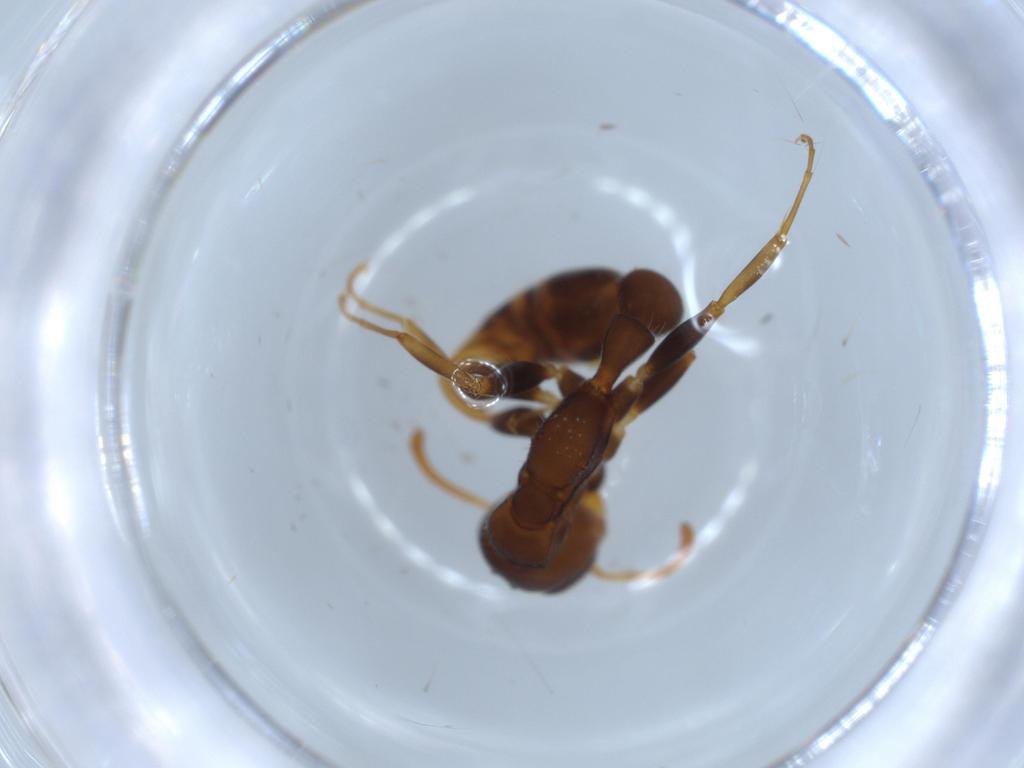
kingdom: Animalia
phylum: Arthropoda
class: Insecta
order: Hymenoptera
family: Formicidae
